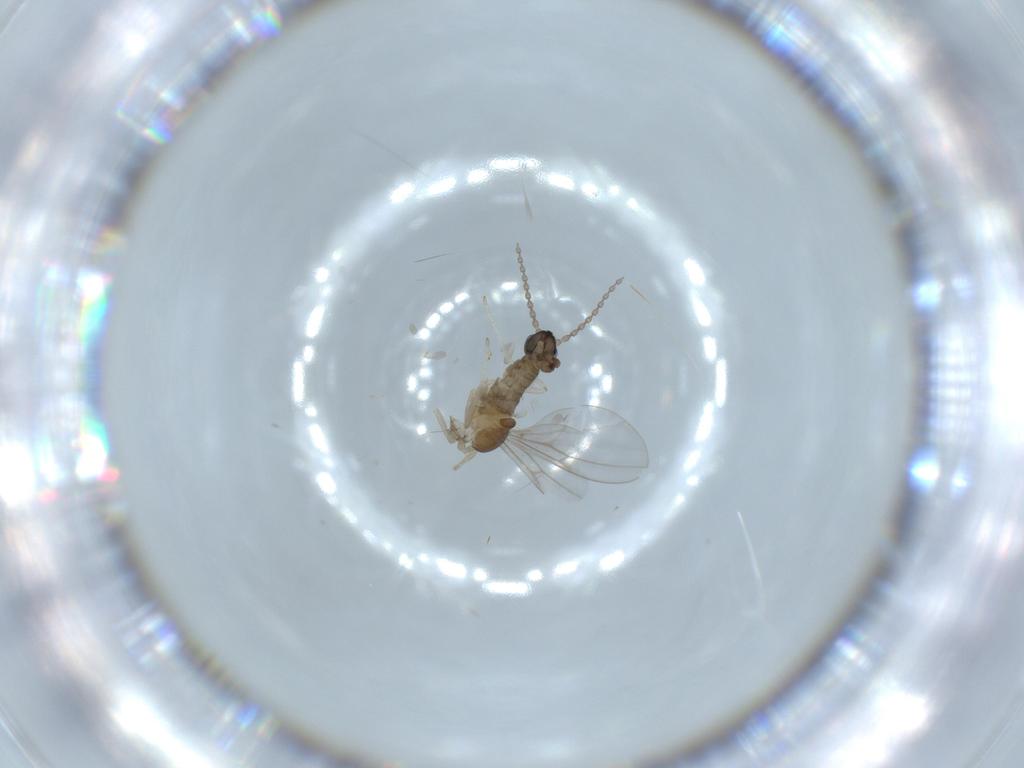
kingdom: Animalia
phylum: Arthropoda
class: Insecta
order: Diptera
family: Cecidomyiidae
